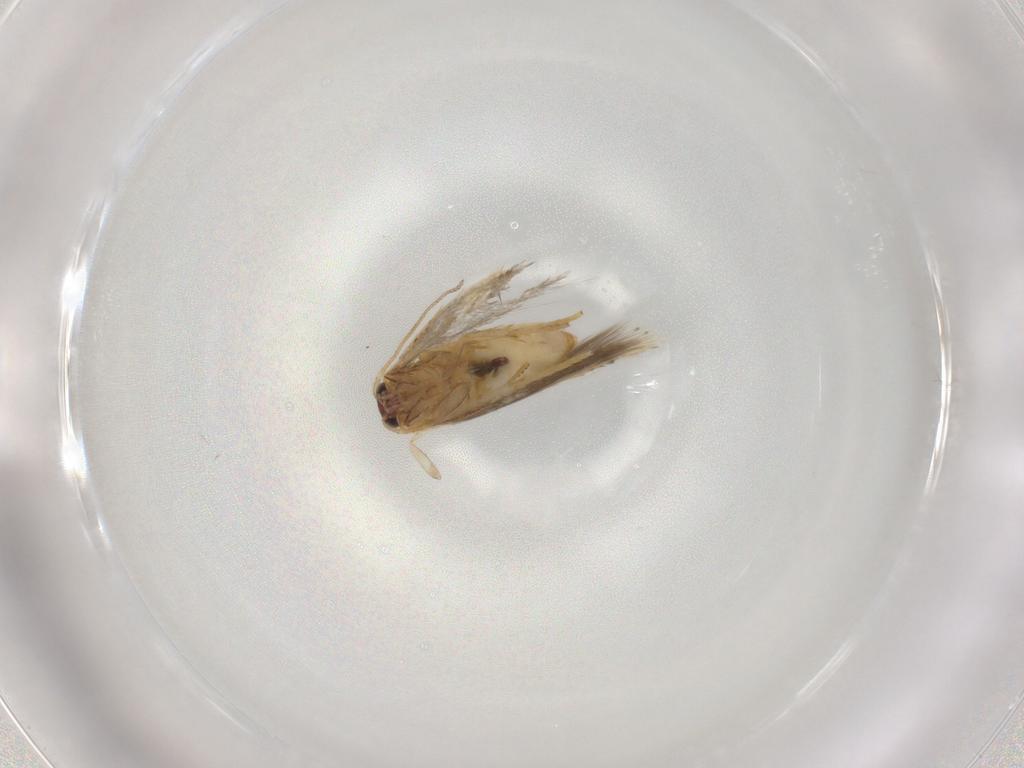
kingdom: Animalia
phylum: Arthropoda
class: Insecta
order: Lepidoptera
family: Nepticulidae
